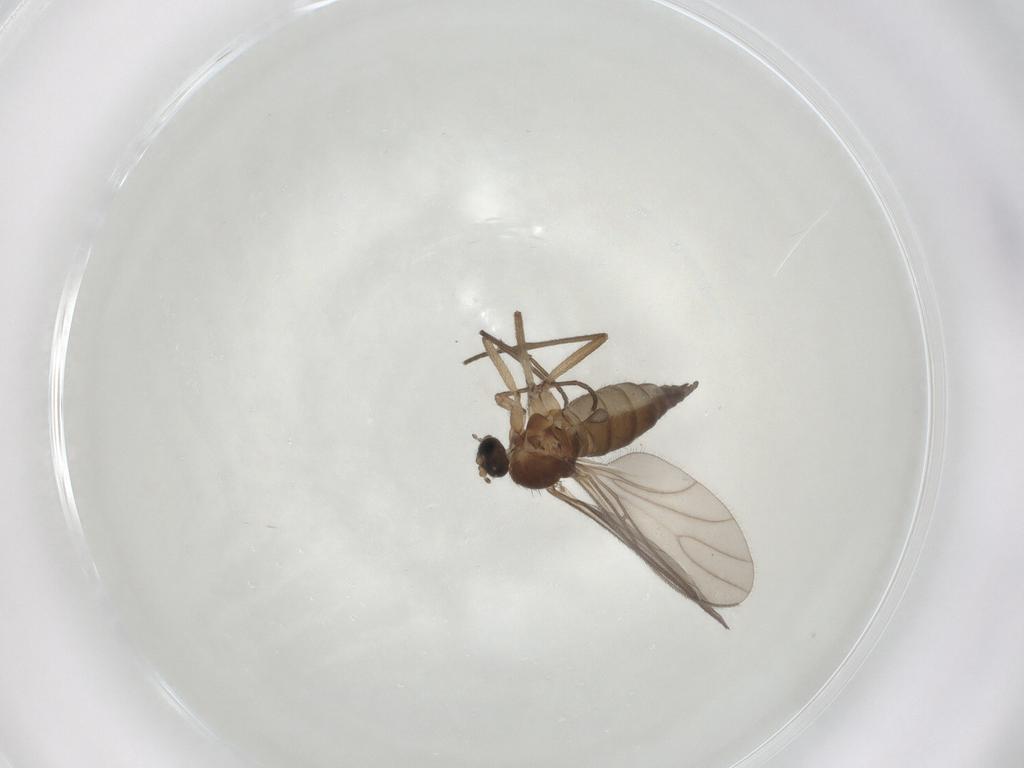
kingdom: Animalia
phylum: Arthropoda
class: Insecta
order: Diptera
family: Sciaridae
